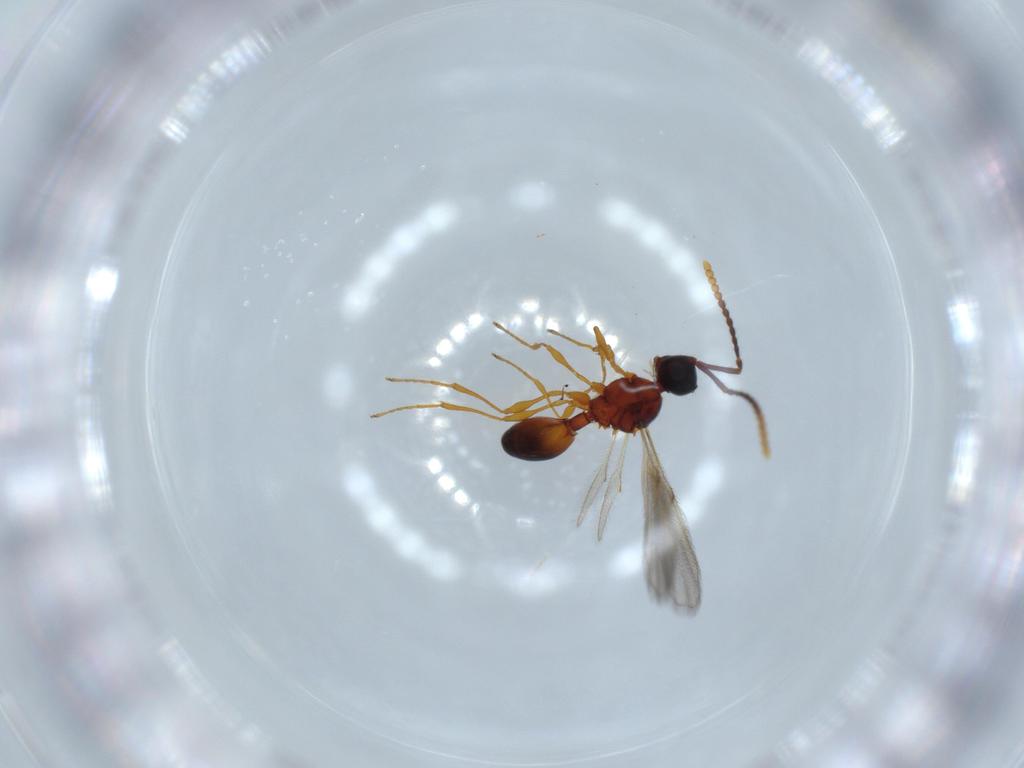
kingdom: Animalia
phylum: Arthropoda
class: Insecta
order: Hymenoptera
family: Diapriidae
